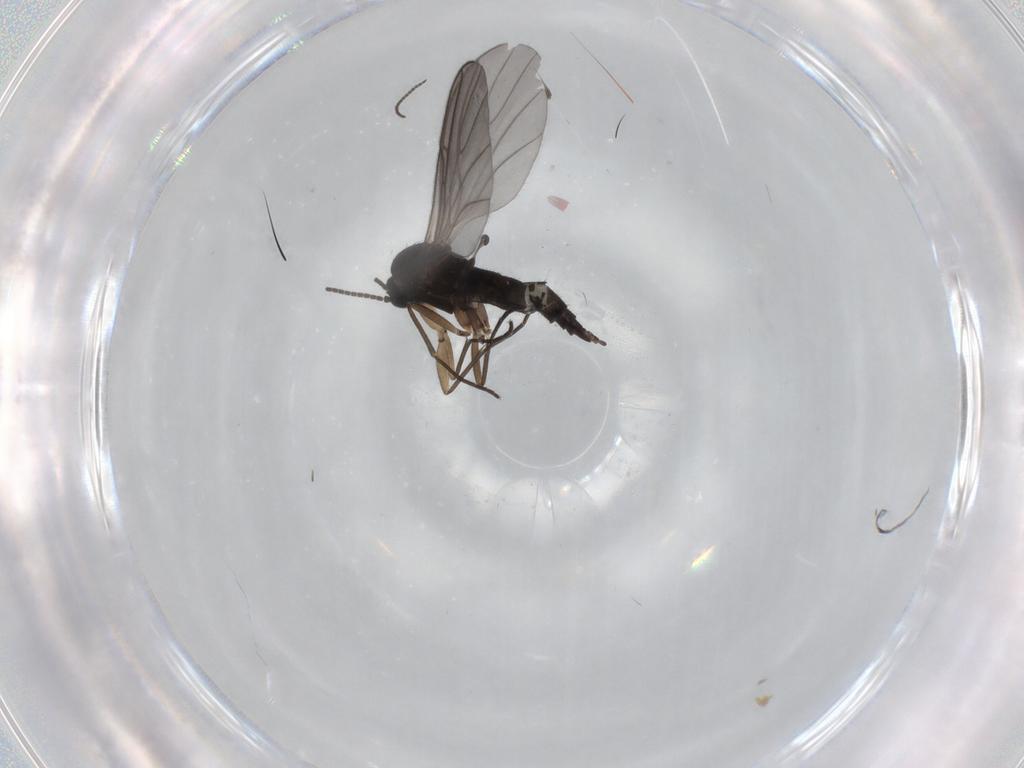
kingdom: Animalia
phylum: Arthropoda
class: Insecta
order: Diptera
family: Sciaridae
